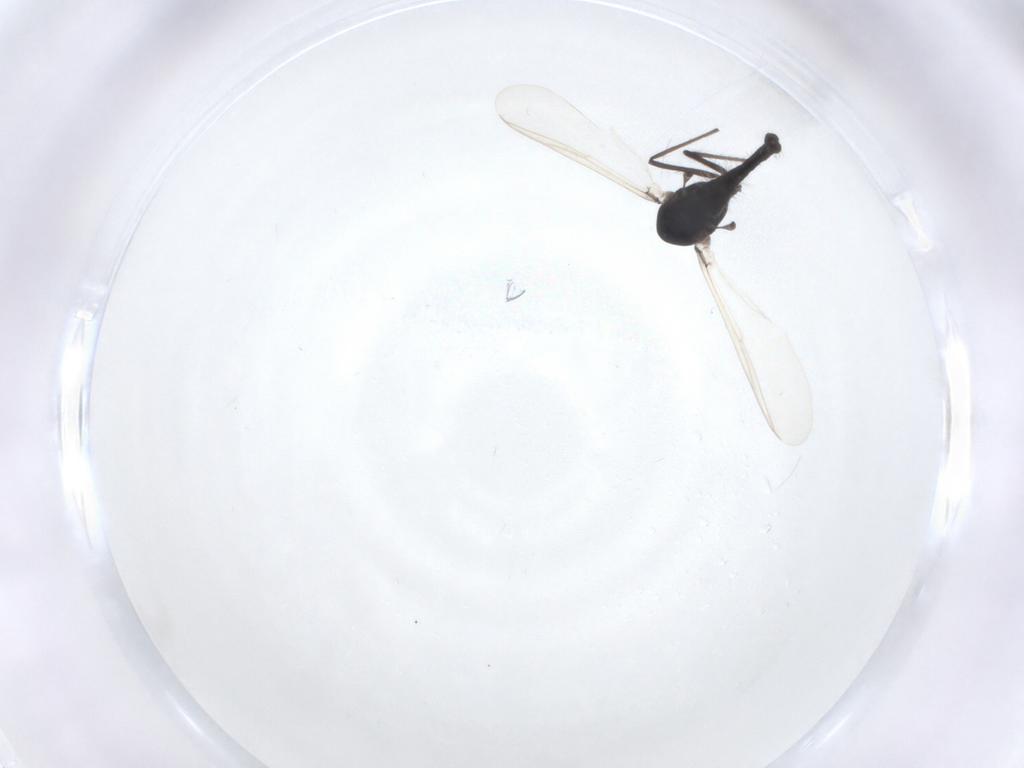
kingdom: Animalia
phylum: Arthropoda
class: Insecta
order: Diptera
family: Chironomidae
